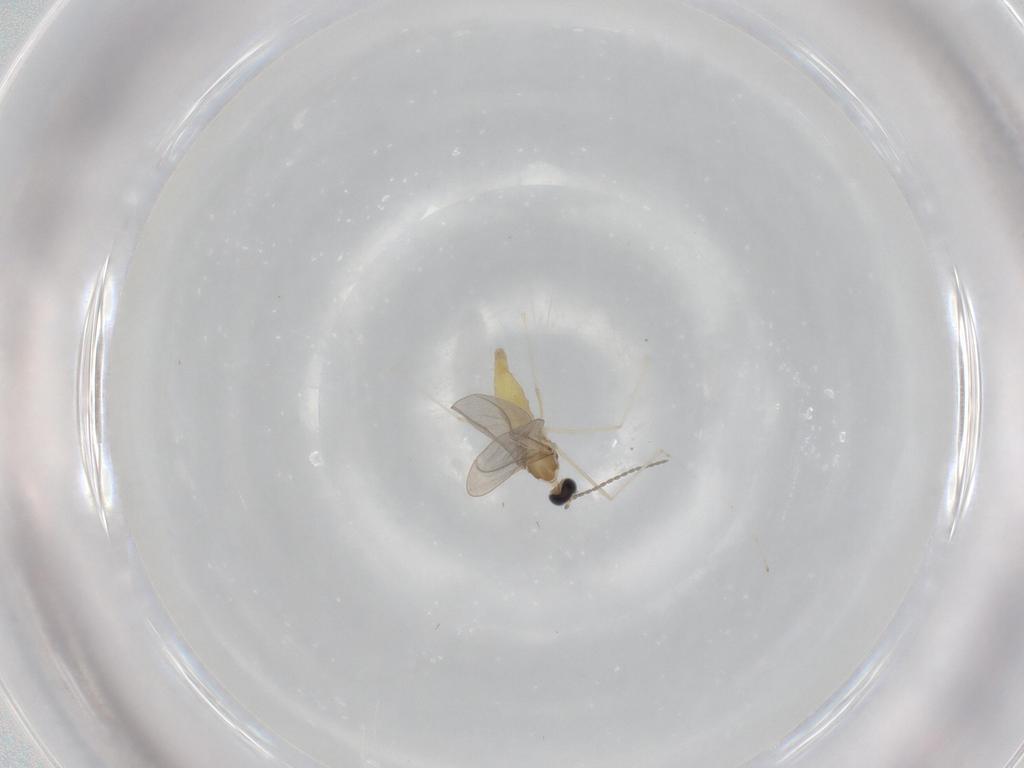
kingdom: Animalia
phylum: Arthropoda
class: Insecta
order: Diptera
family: Cecidomyiidae
